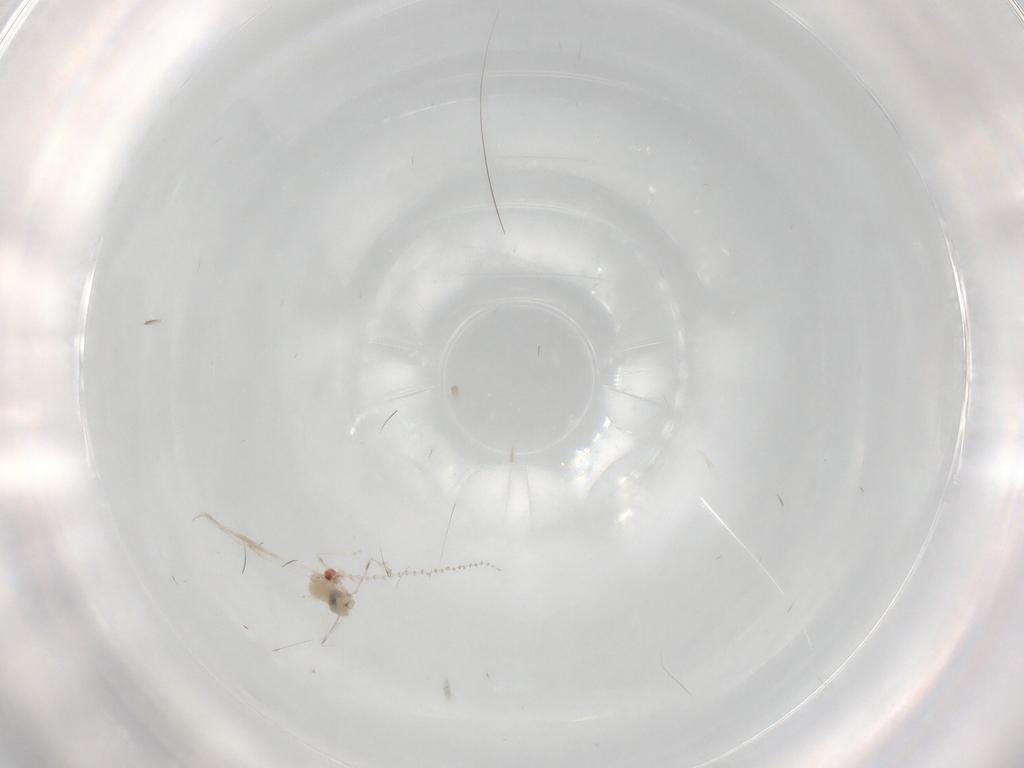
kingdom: Animalia
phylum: Arthropoda
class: Insecta
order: Diptera
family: Cecidomyiidae
